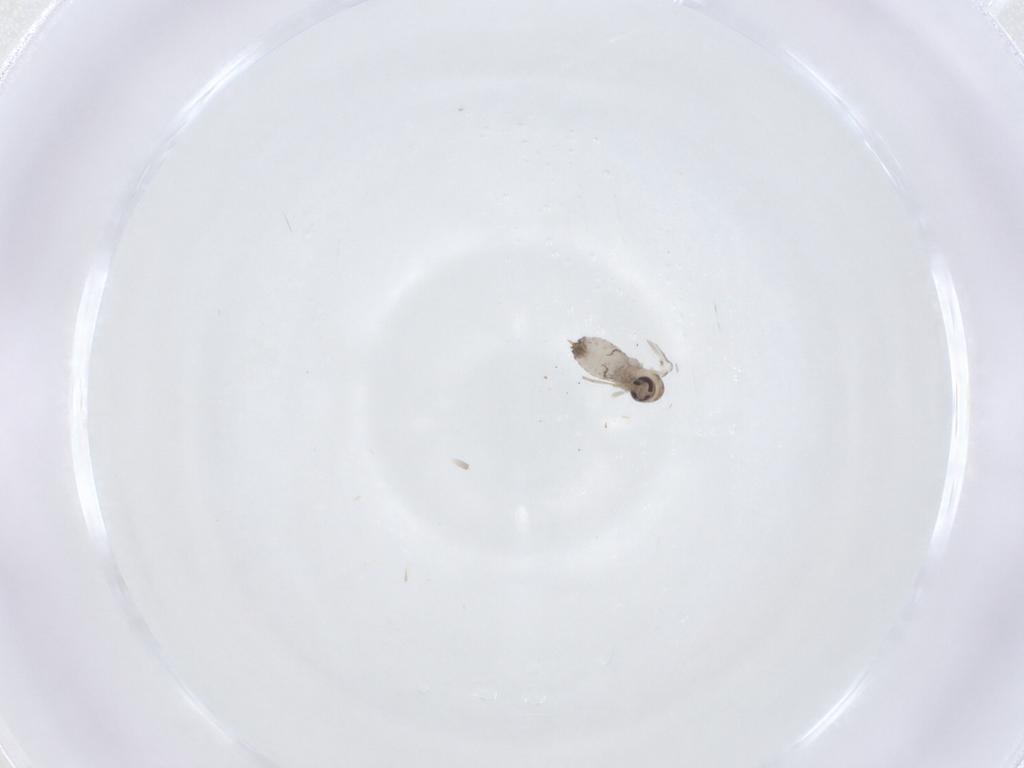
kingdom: Animalia
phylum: Arthropoda
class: Insecta
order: Diptera
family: Psychodidae
